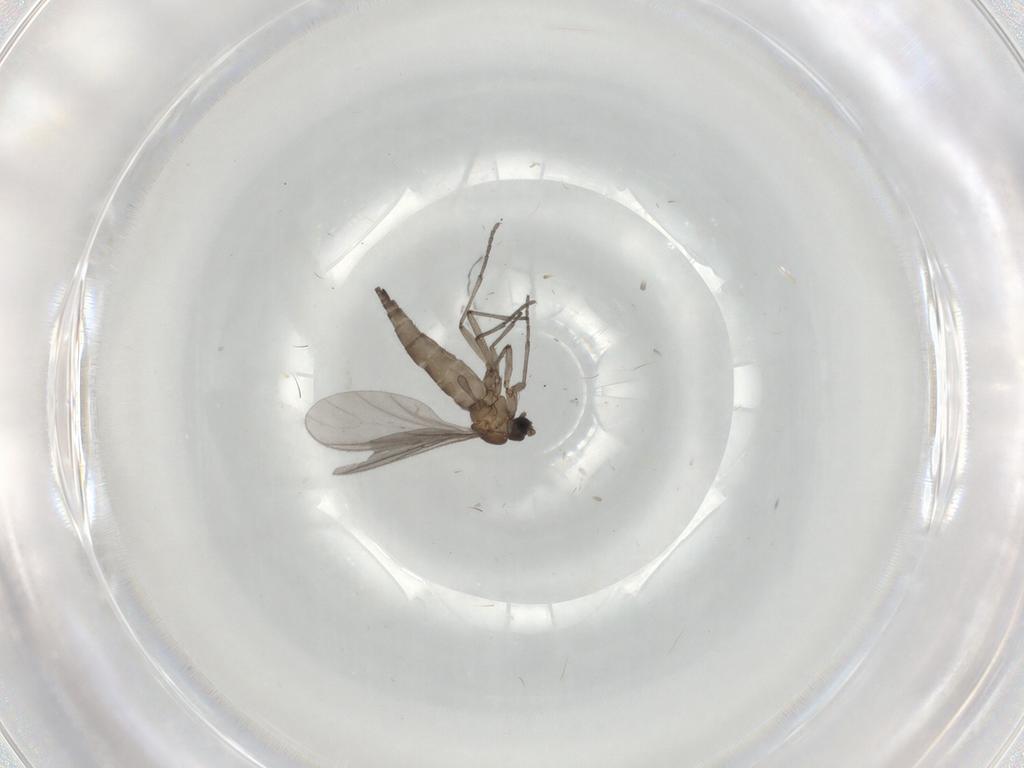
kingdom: Animalia
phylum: Arthropoda
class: Insecta
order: Diptera
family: Sciaridae
